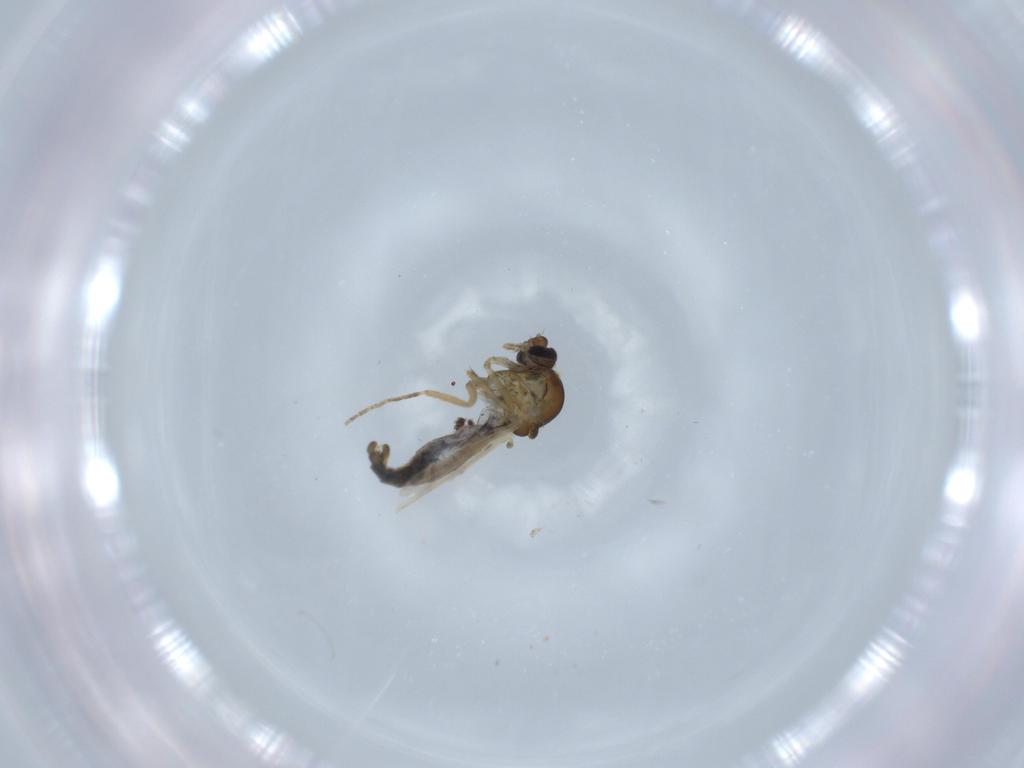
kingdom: Animalia
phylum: Arthropoda
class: Insecta
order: Diptera
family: Ceratopogonidae
